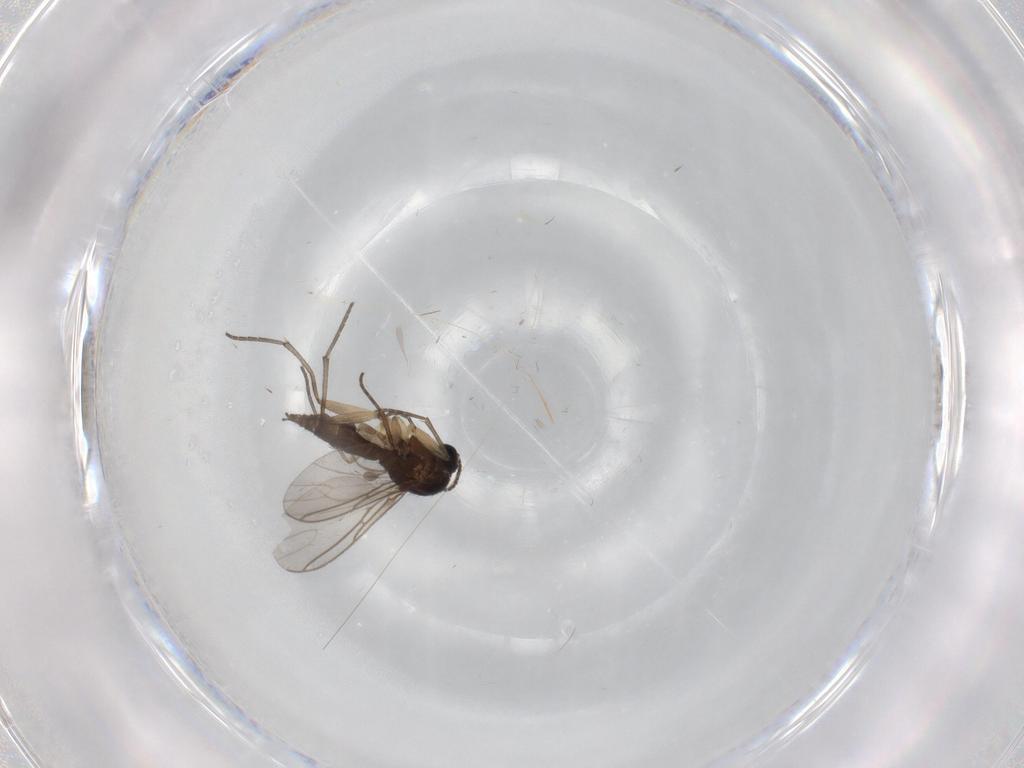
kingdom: Animalia
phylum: Arthropoda
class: Insecta
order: Diptera
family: Sciaridae
